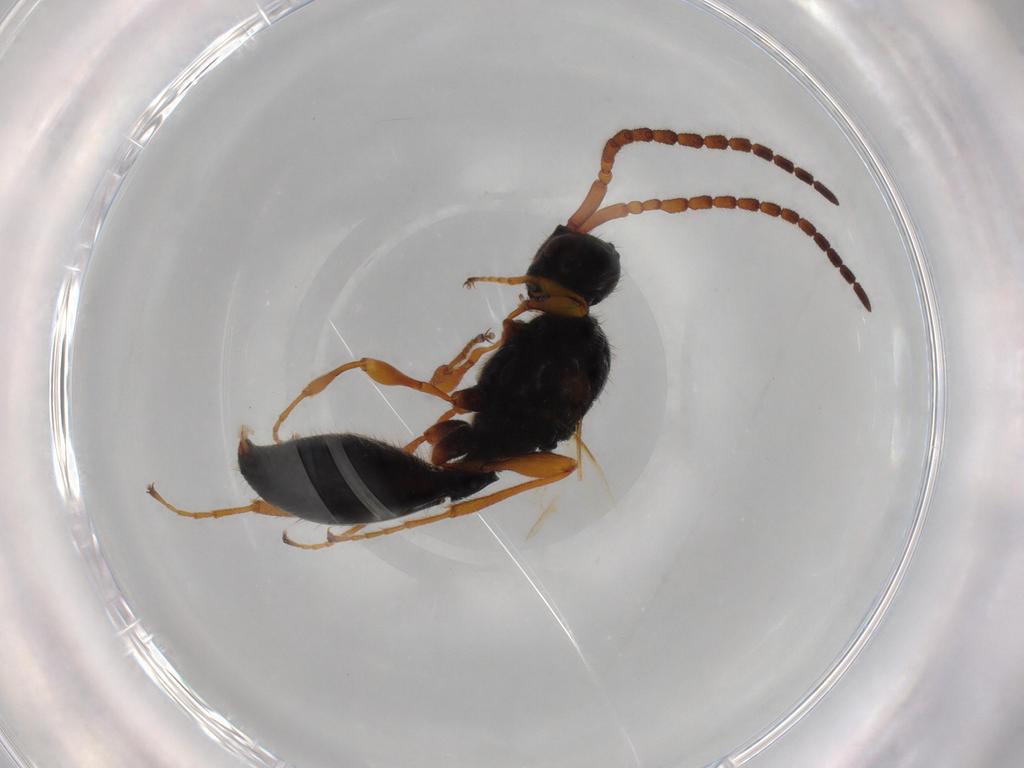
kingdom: Animalia
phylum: Arthropoda
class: Insecta
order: Hymenoptera
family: Diapriidae
